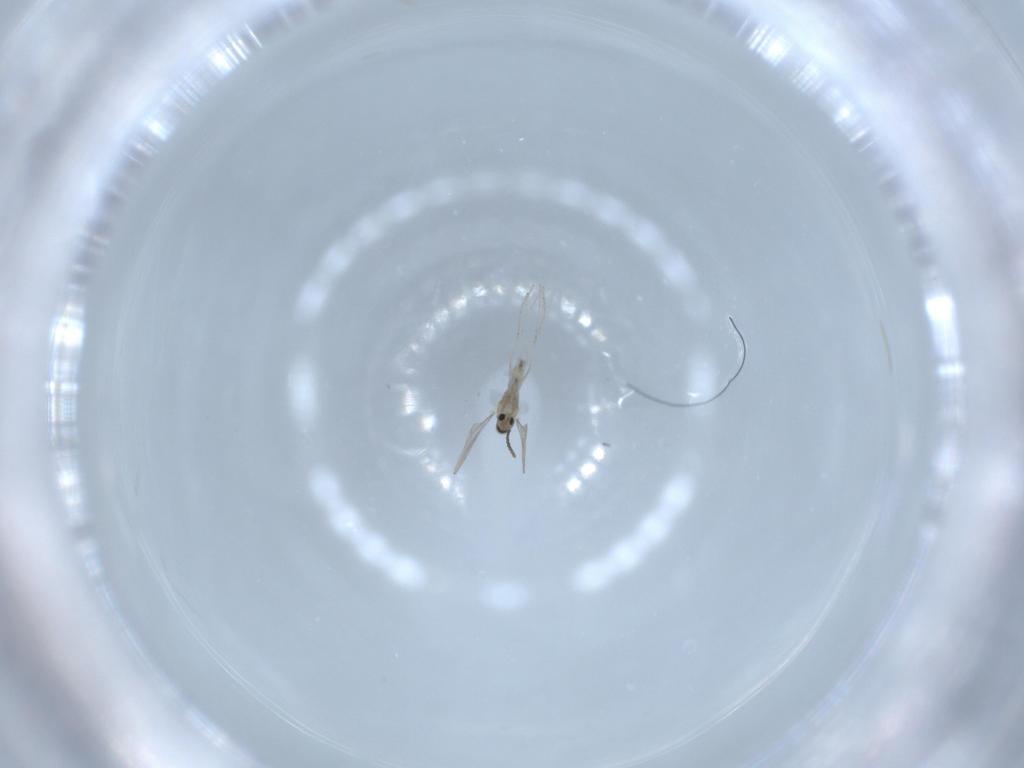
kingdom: Animalia
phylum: Arthropoda
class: Insecta
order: Diptera
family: Cecidomyiidae
